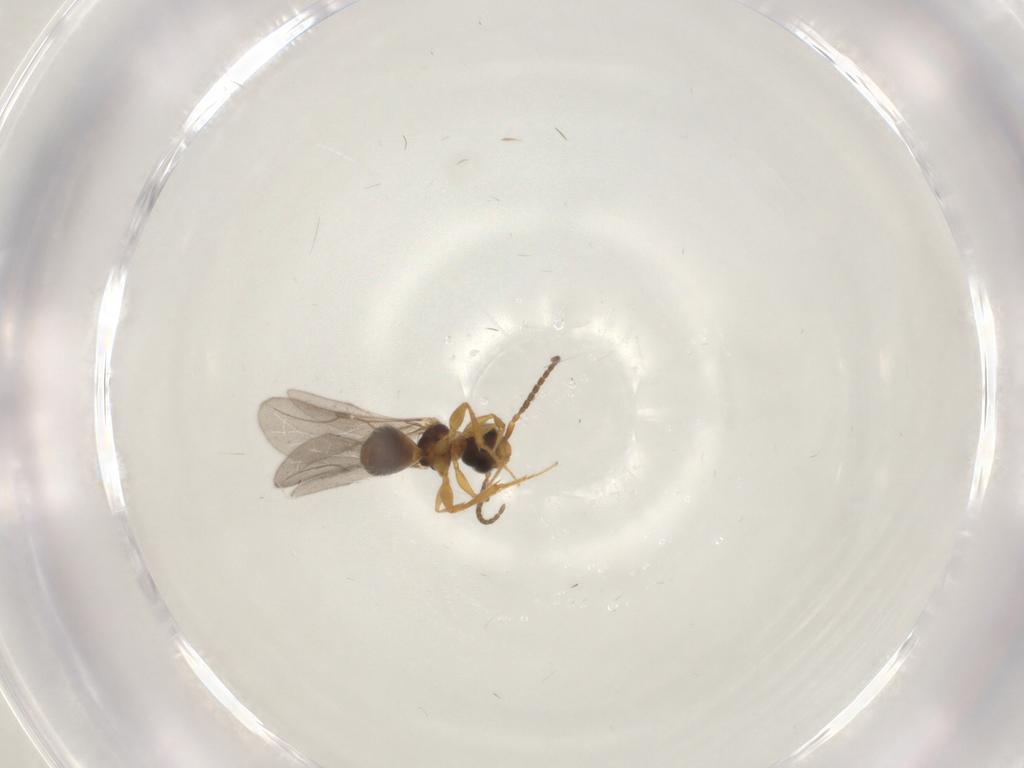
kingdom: Animalia
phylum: Arthropoda
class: Insecta
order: Hymenoptera
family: Bethylidae
